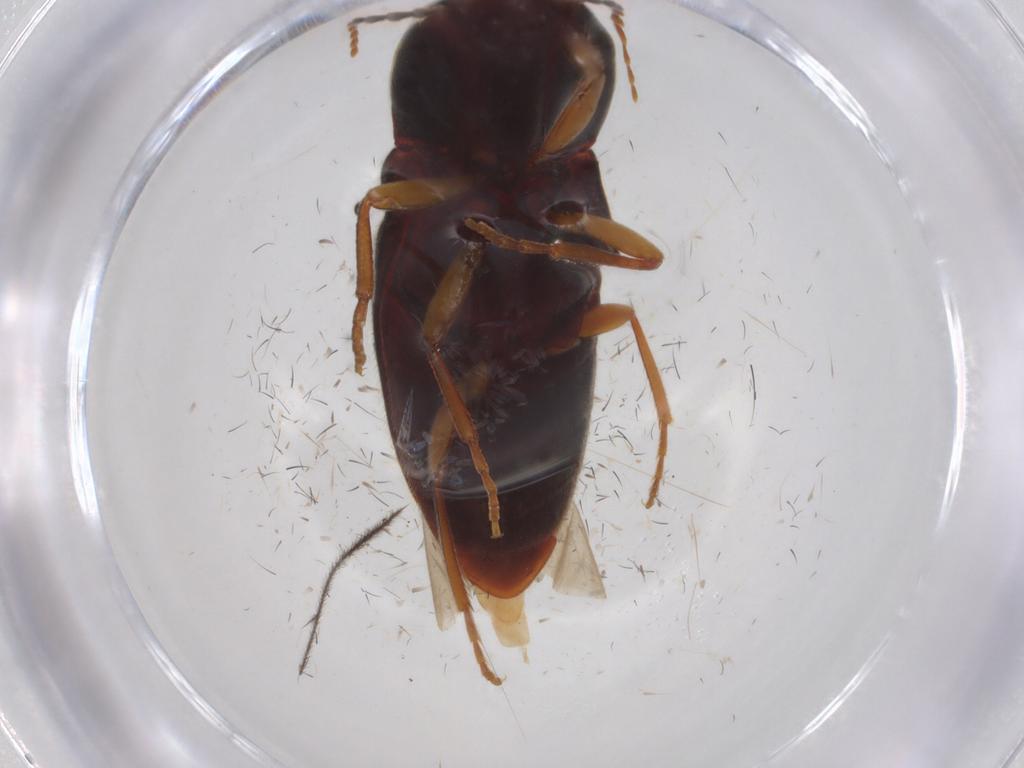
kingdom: Animalia
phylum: Arthropoda
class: Insecta
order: Coleoptera
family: Elateridae
